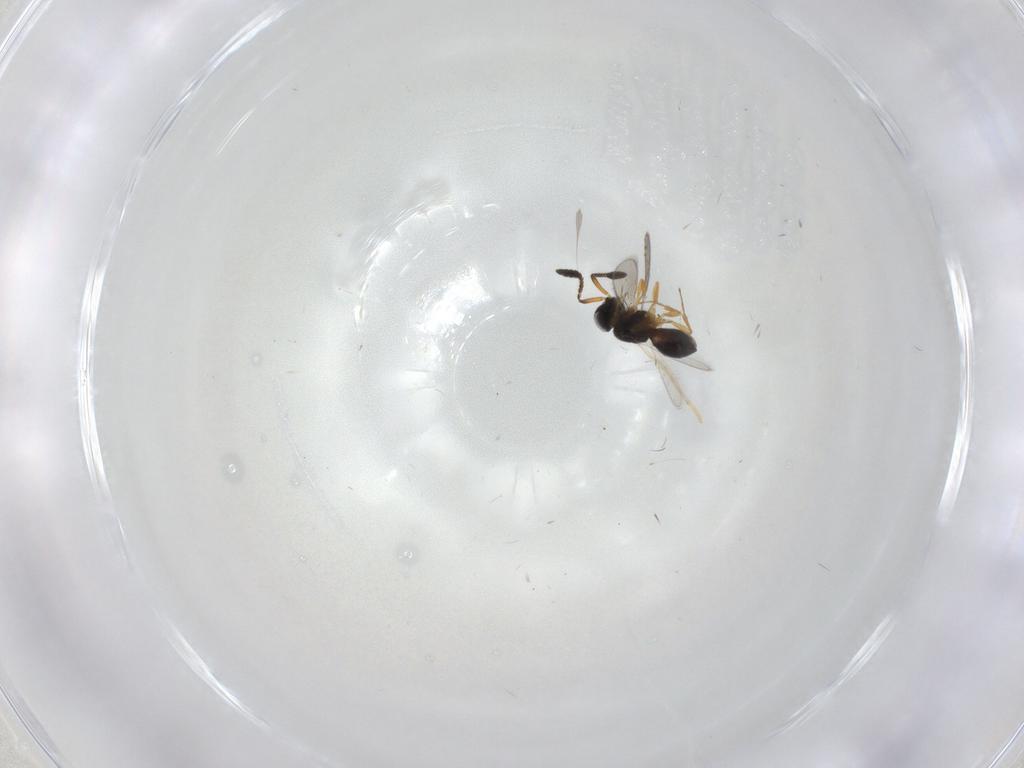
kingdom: Animalia
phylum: Arthropoda
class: Insecta
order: Hymenoptera
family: Scelionidae
